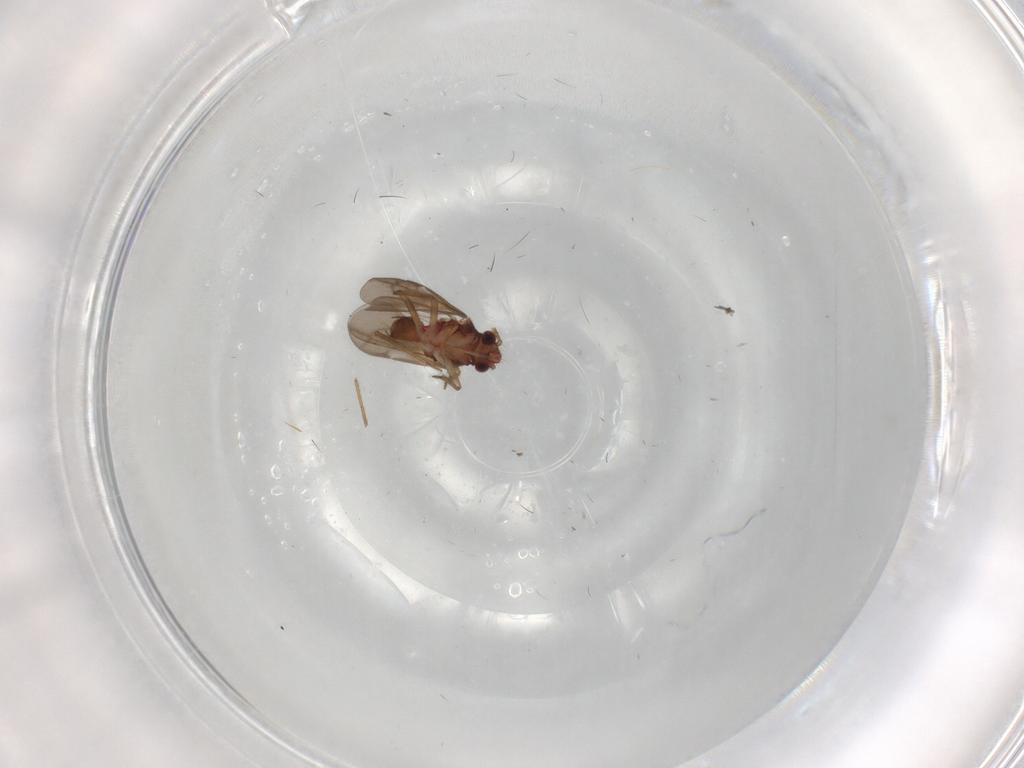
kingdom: Animalia
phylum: Arthropoda
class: Insecta
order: Hemiptera
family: Ceratocombidae
